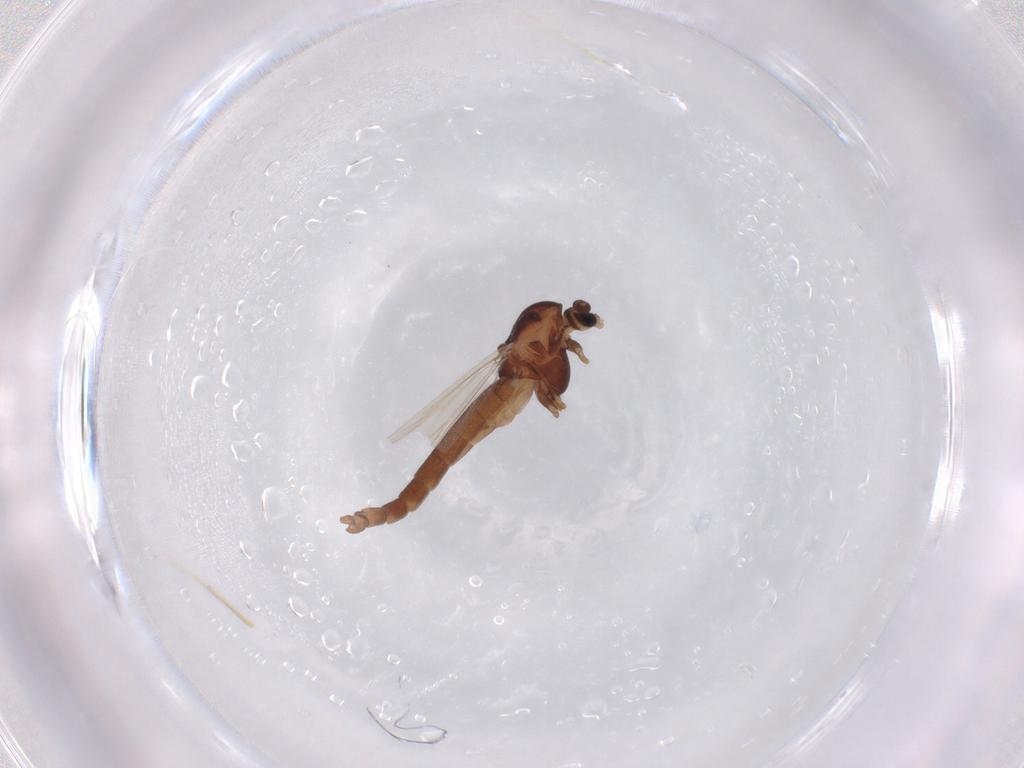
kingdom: Animalia
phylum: Arthropoda
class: Insecta
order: Diptera
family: Chironomidae
